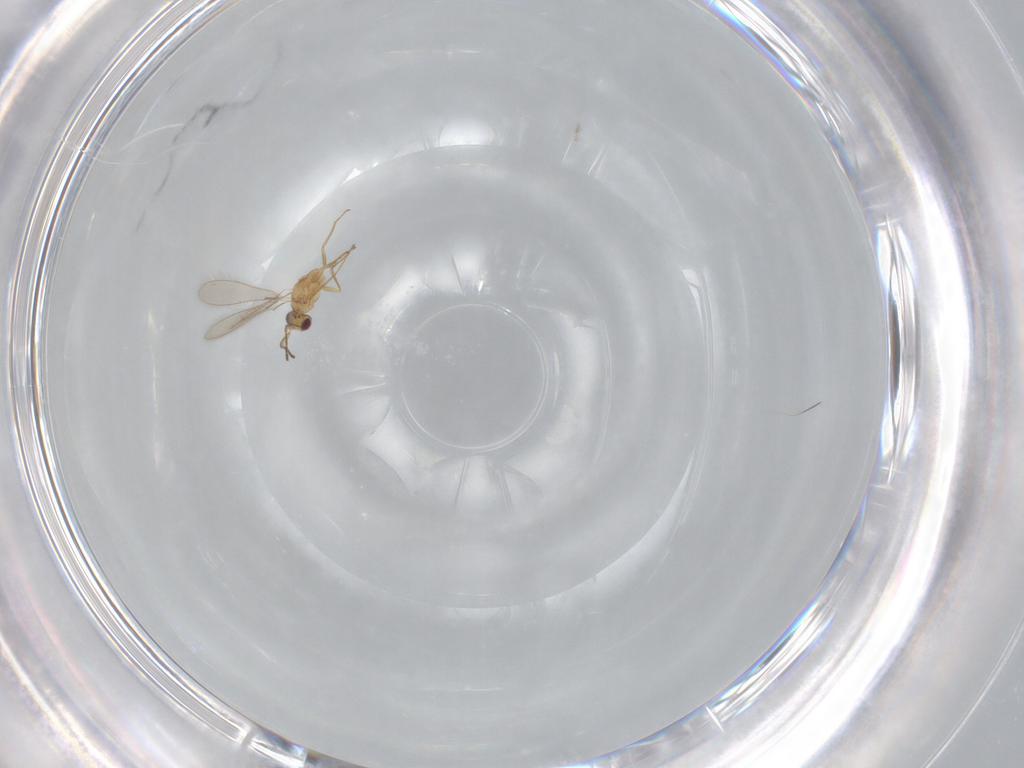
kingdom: Animalia
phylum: Arthropoda
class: Insecta
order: Hymenoptera
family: Mymaridae
